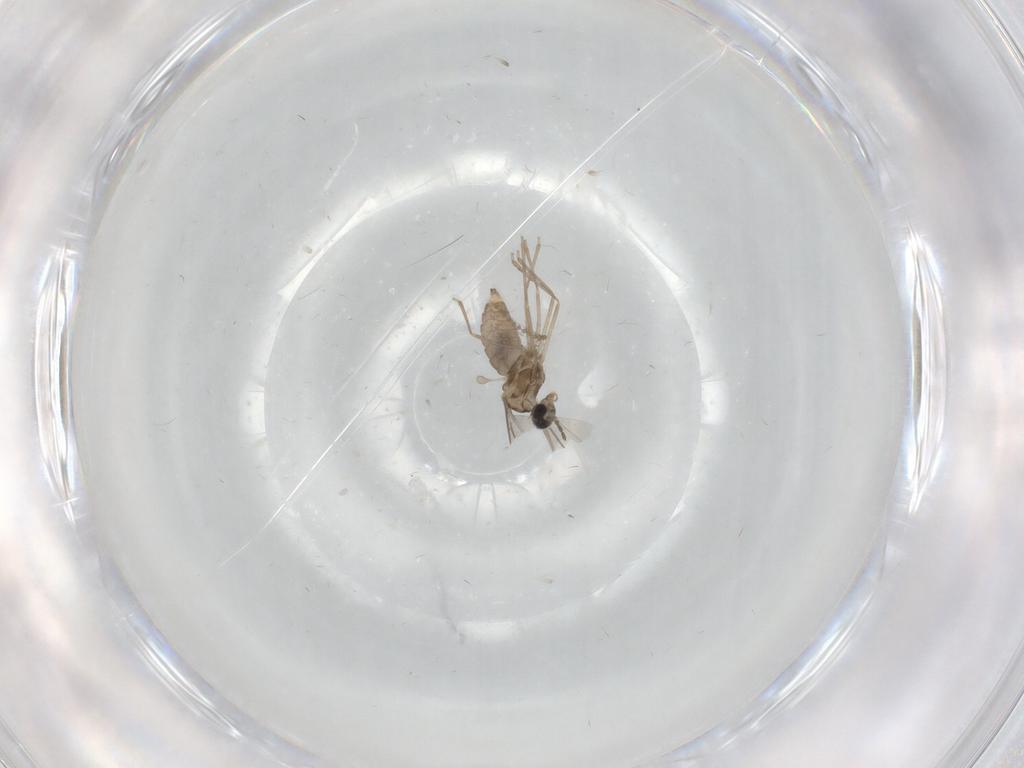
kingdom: Animalia
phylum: Arthropoda
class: Insecta
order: Diptera
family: Psychodidae
